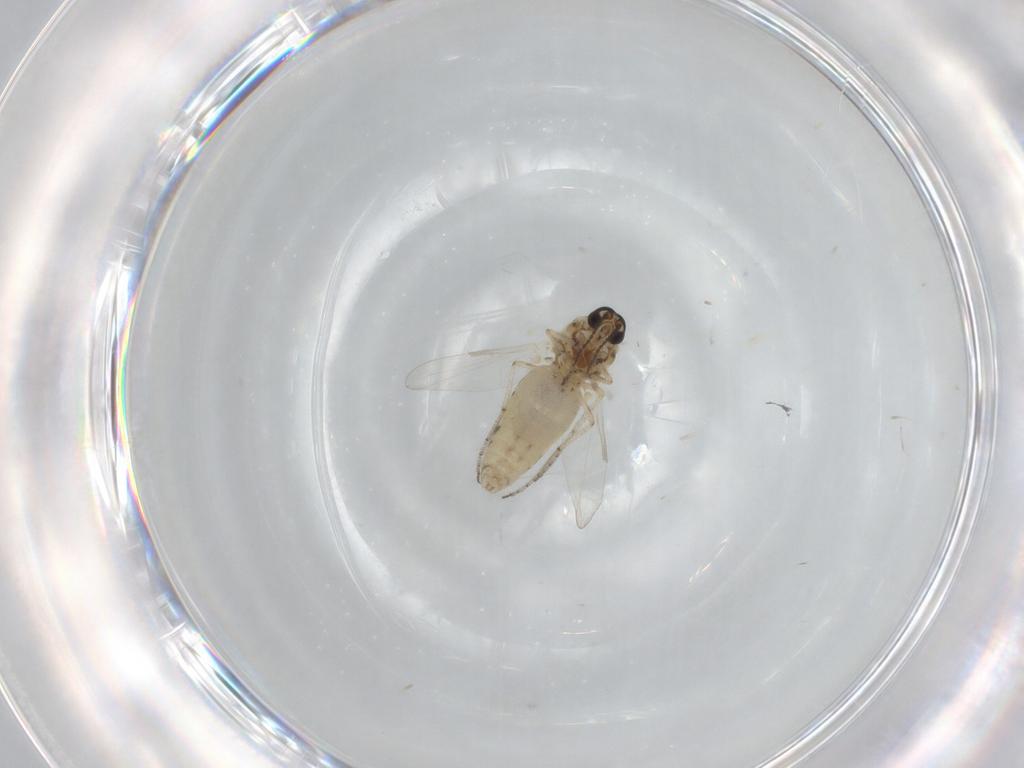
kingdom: Animalia
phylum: Arthropoda
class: Insecta
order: Diptera
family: Ceratopogonidae
